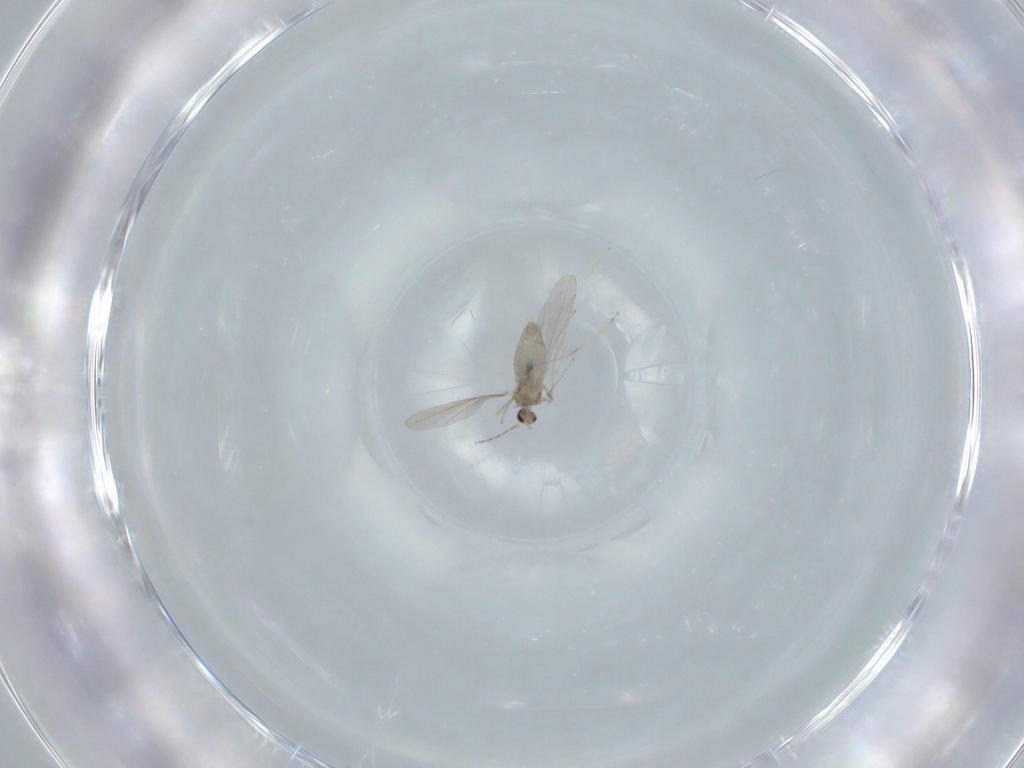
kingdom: Animalia
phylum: Arthropoda
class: Insecta
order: Diptera
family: Cecidomyiidae
